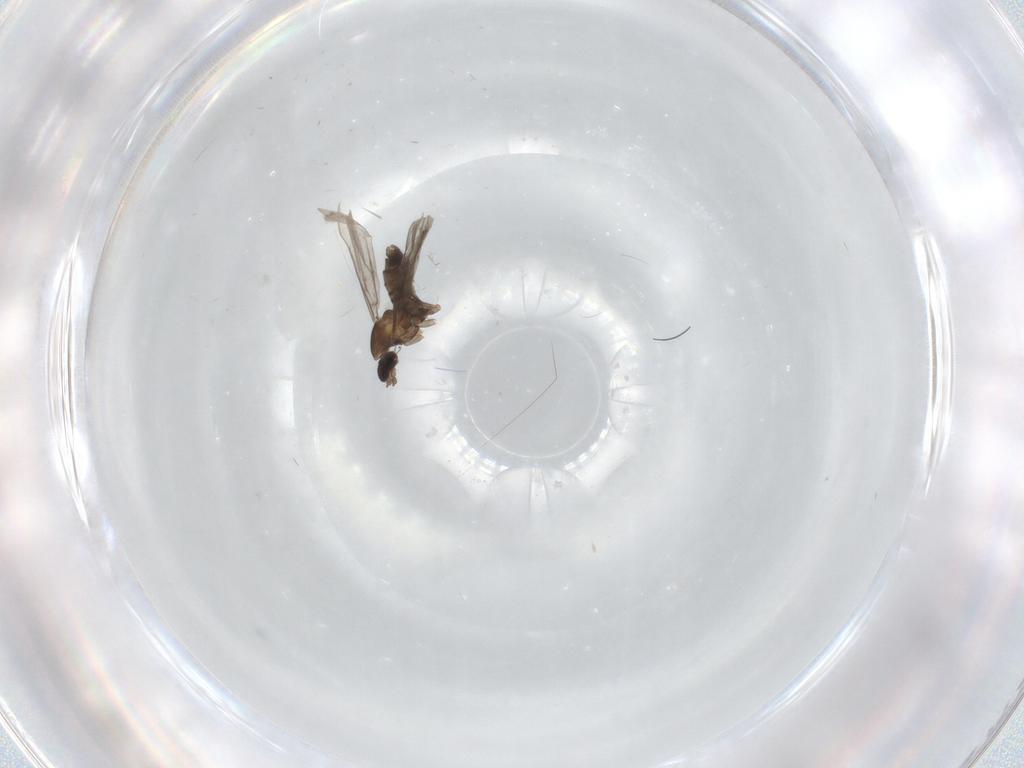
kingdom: Animalia
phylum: Arthropoda
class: Insecta
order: Diptera
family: Cecidomyiidae
